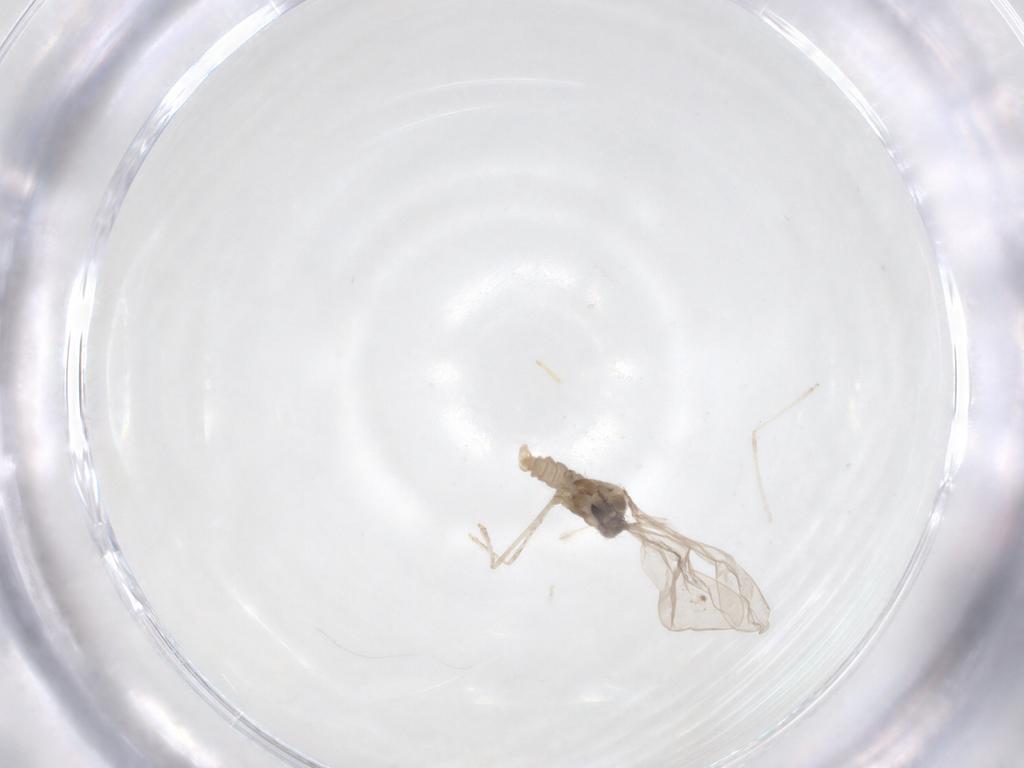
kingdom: Animalia
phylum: Arthropoda
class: Insecta
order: Diptera
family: Cecidomyiidae
